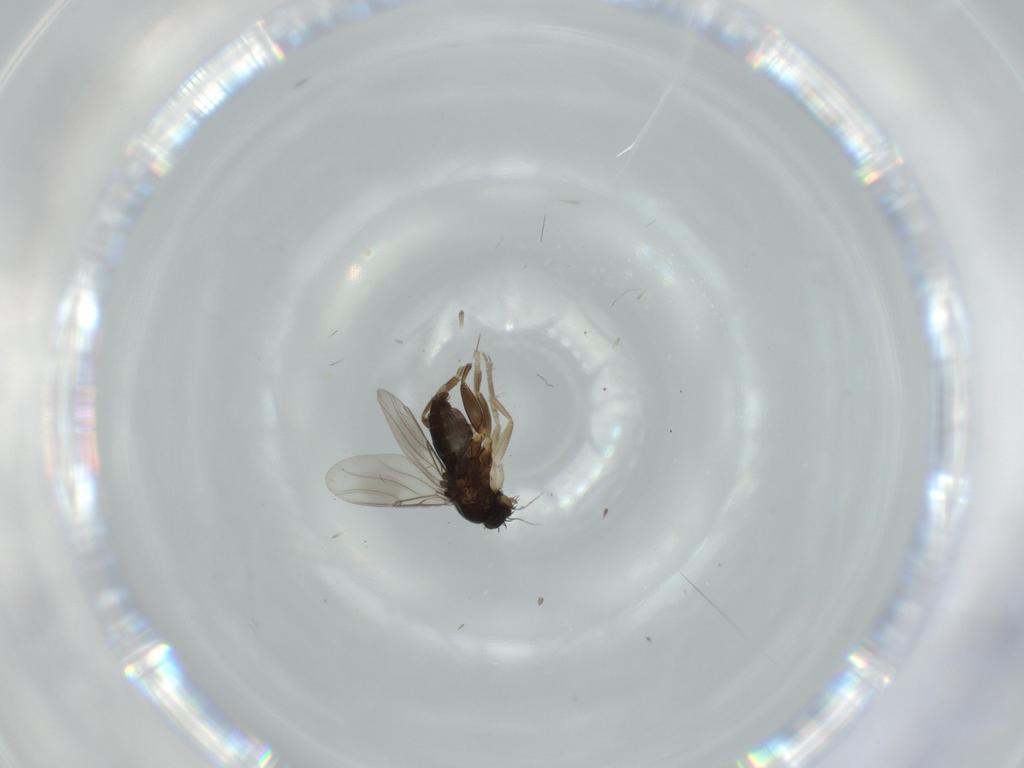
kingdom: Animalia
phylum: Arthropoda
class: Insecta
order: Diptera
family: Phoridae
